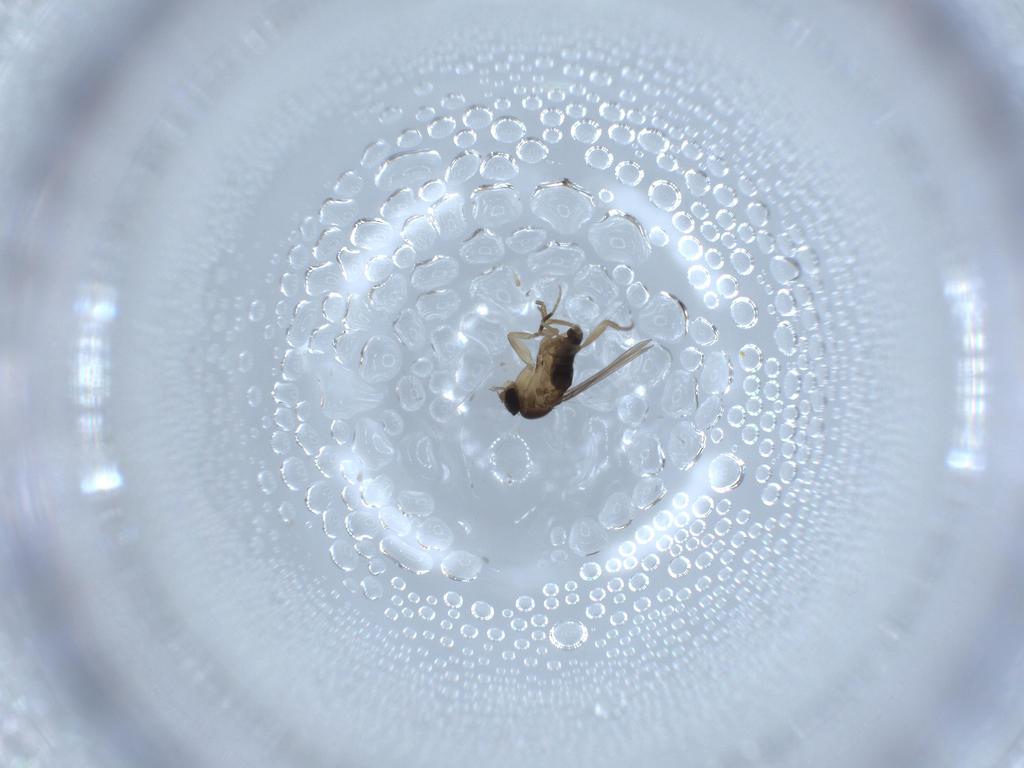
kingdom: Animalia
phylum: Arthropoda
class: Insecta
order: Diptera
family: Phoridae
